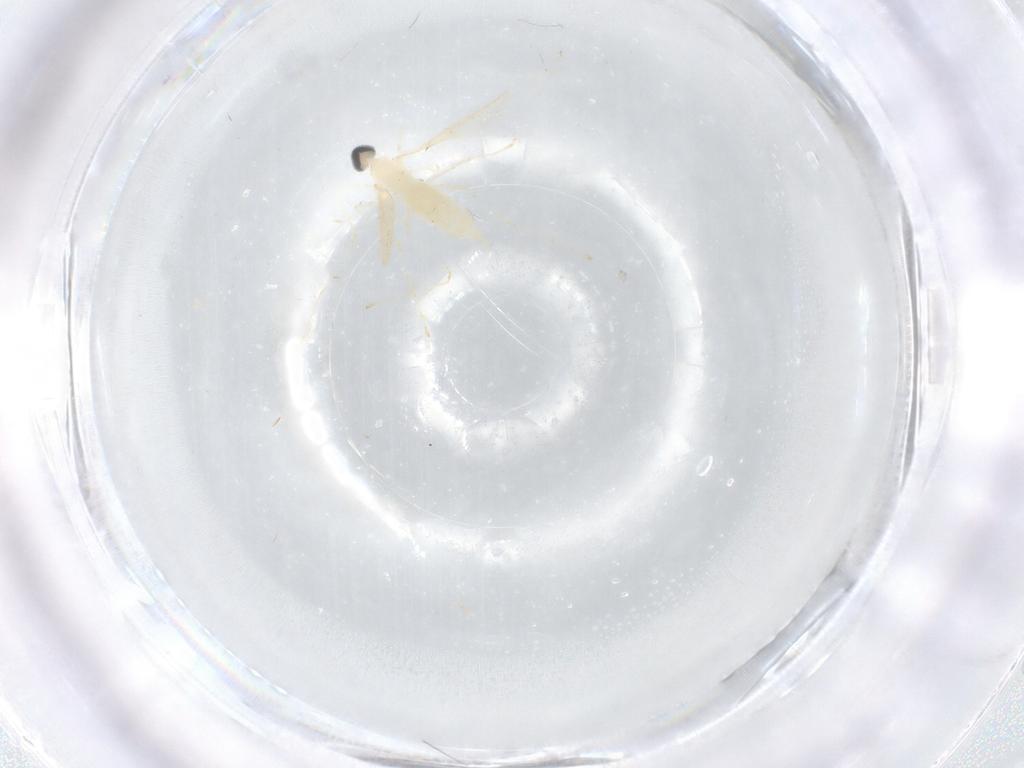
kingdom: Animalia
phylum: Arthropoda
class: Insecta
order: Diptera
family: Cecidomyiidae
